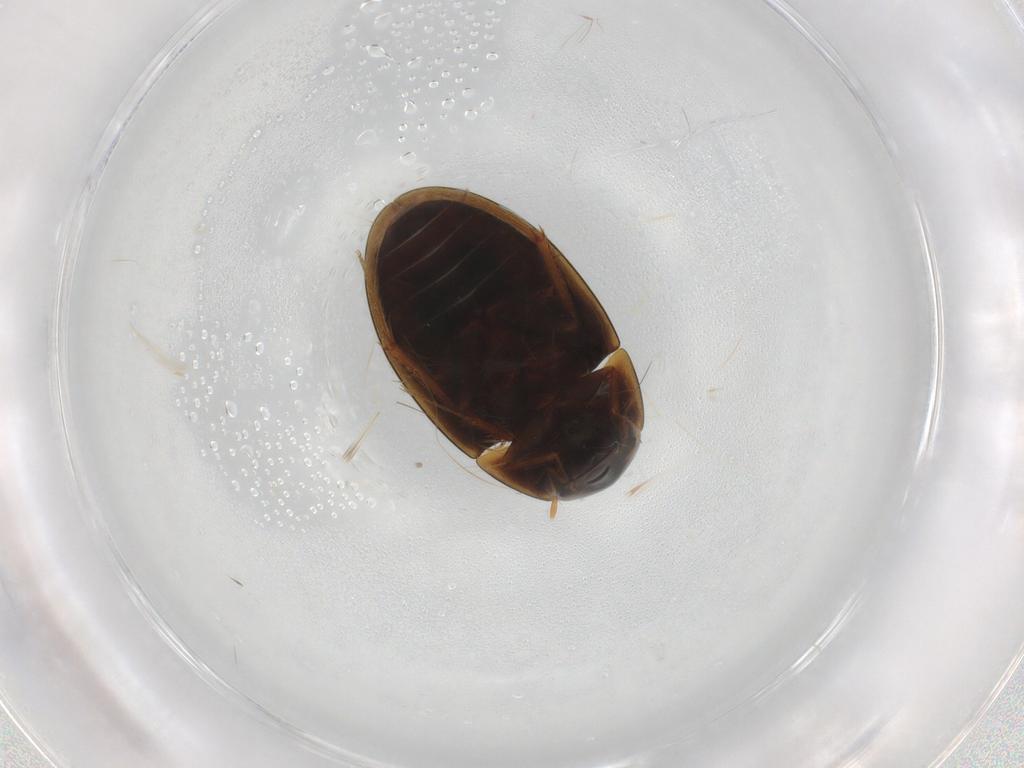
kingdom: Animalia
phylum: Arthropoda
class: Insecta
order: Coleoptera
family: Hydrophilidae
